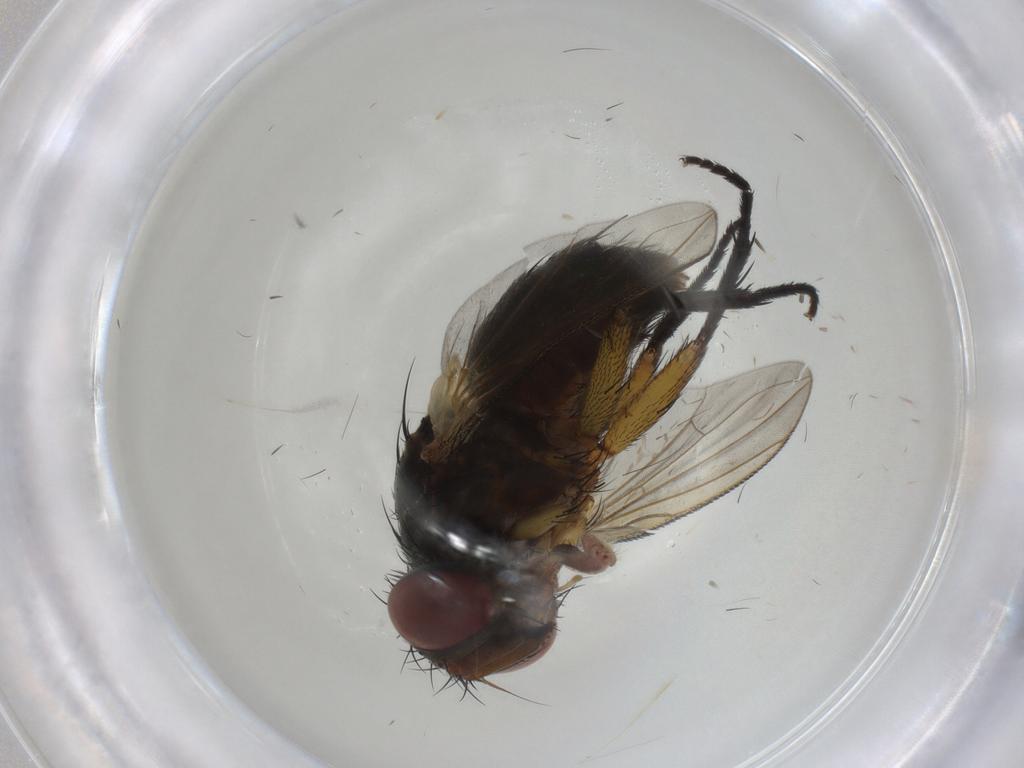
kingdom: Animalia
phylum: Arthropoda
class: Insecta
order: Diptera
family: Tachinidae
